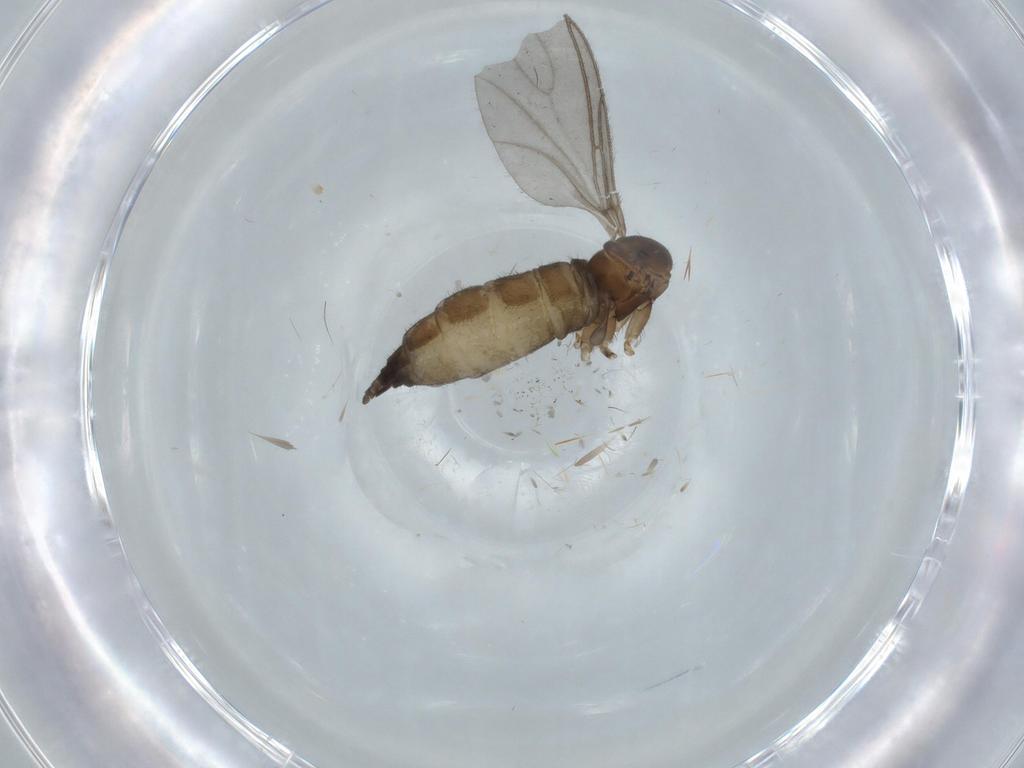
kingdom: Animalia
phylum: Arthropoda
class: Insecta
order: Diptera
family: Sciaridae
